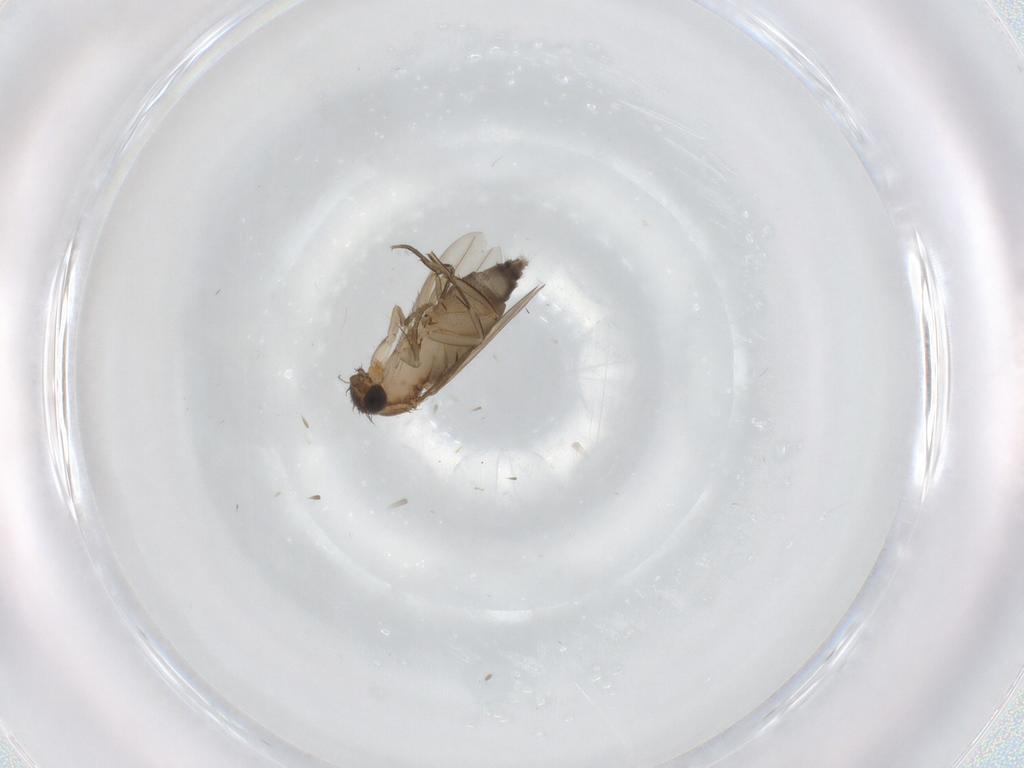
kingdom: Animalia
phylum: Arthropoda
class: Insecta
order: Diptera
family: Phoridae
